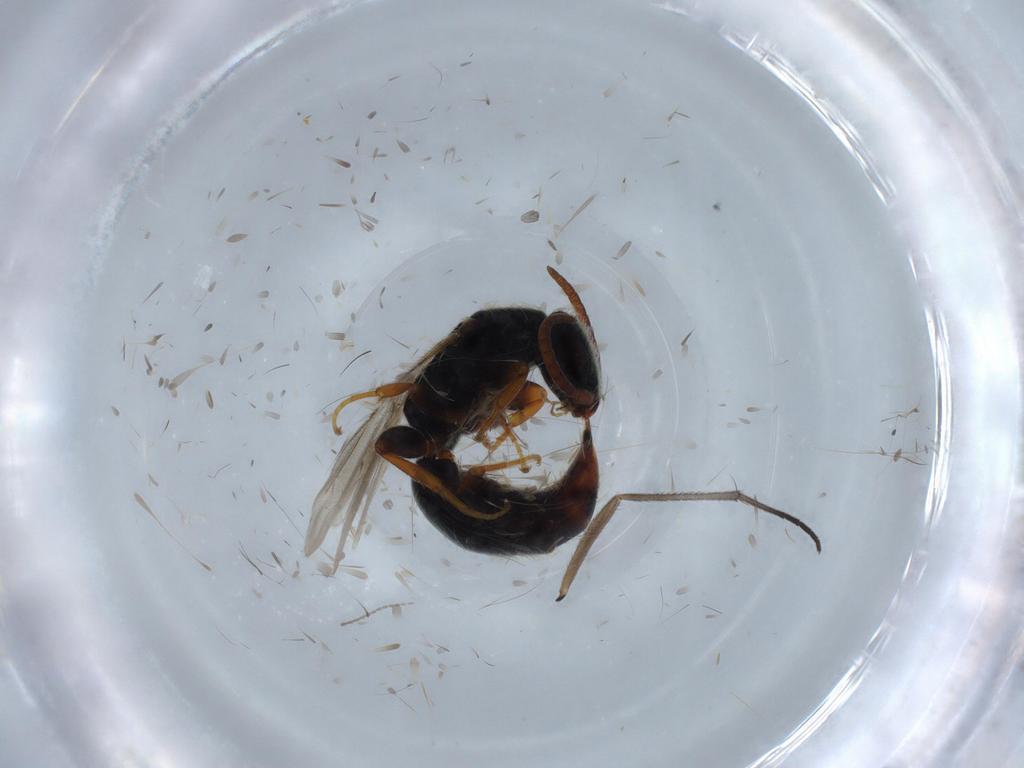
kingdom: Animalia
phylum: Arthropoda
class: Insecta
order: Hymenoptera
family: Bethylidae
